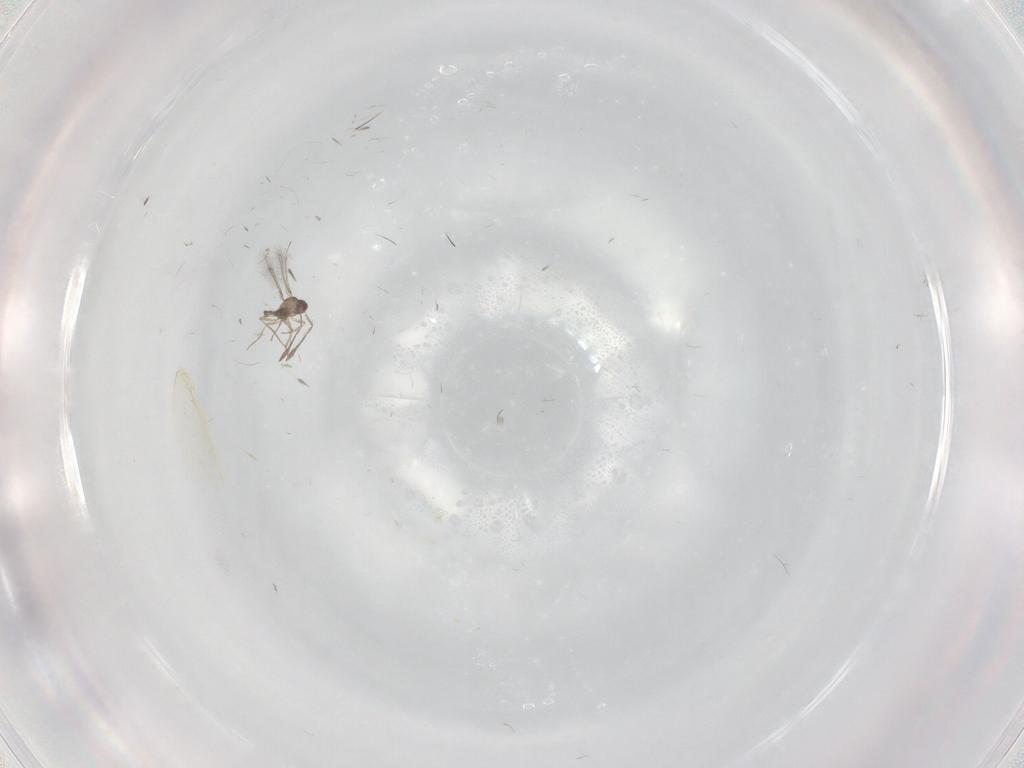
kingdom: Animalia
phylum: Arthropoda
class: Insecta
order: Hymenoptera
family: Mymaridae
